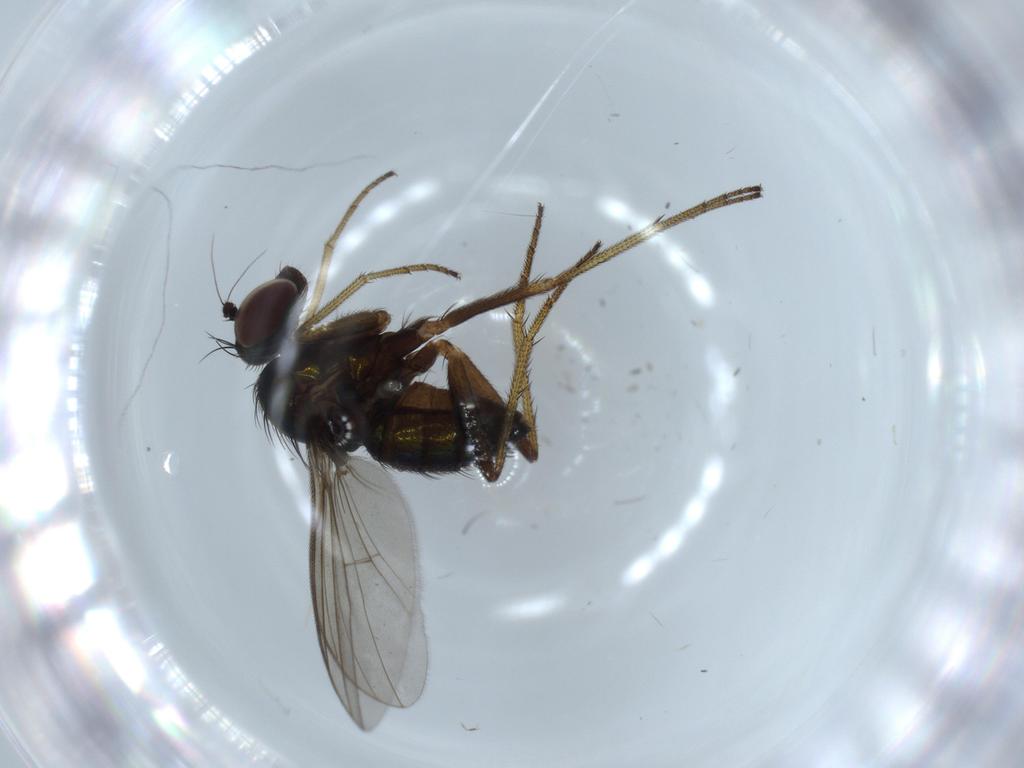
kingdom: Animalia
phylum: Arthropoda
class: Insecta
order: Diptera
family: Dolichopodidae
